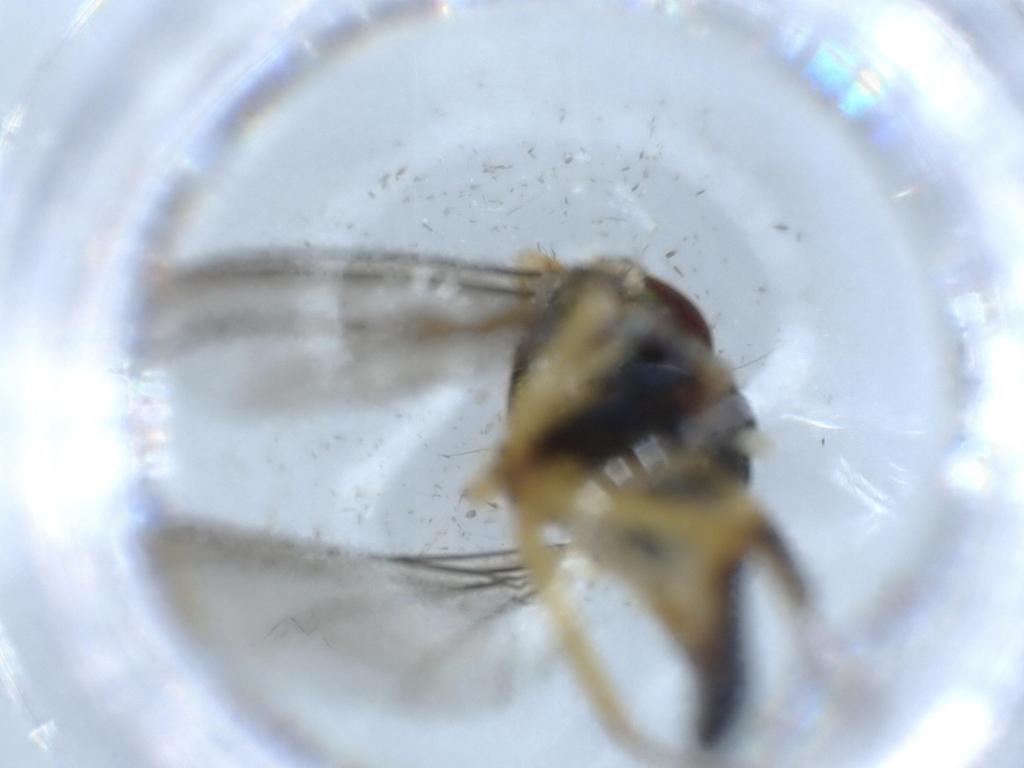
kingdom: Animalia
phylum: Arthropoda
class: Insecta
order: Diptera
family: Dolichopodidae
